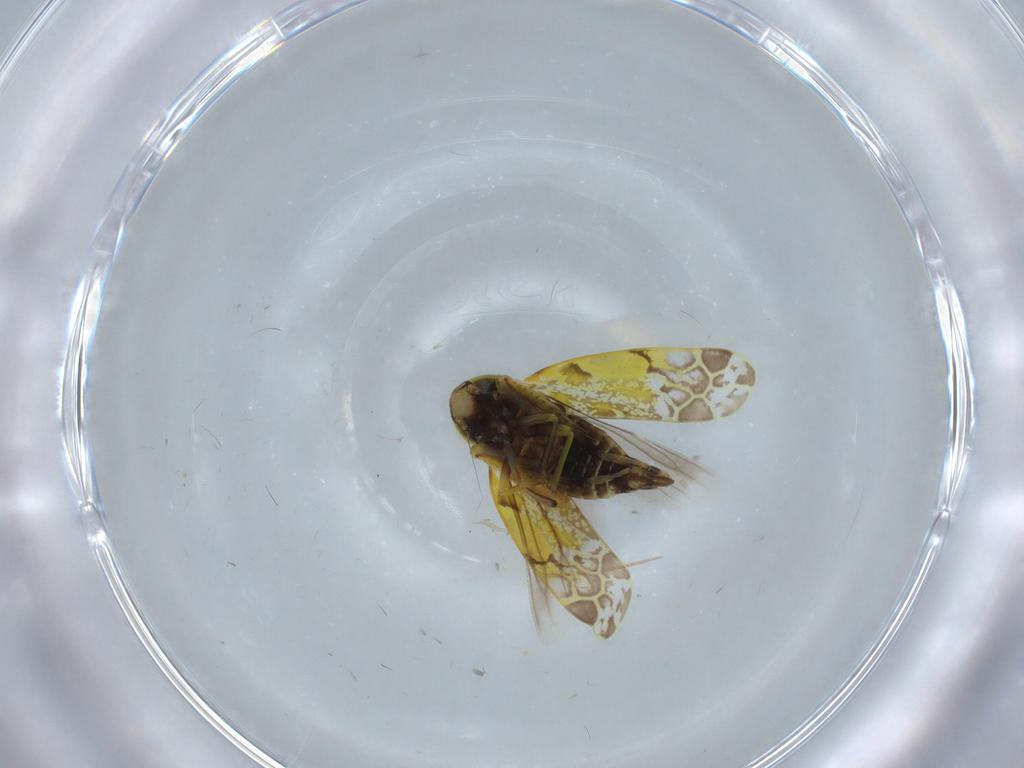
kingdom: Animalia
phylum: Arthropoda
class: Insecta
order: Hemiptera
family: Cicadellidae
